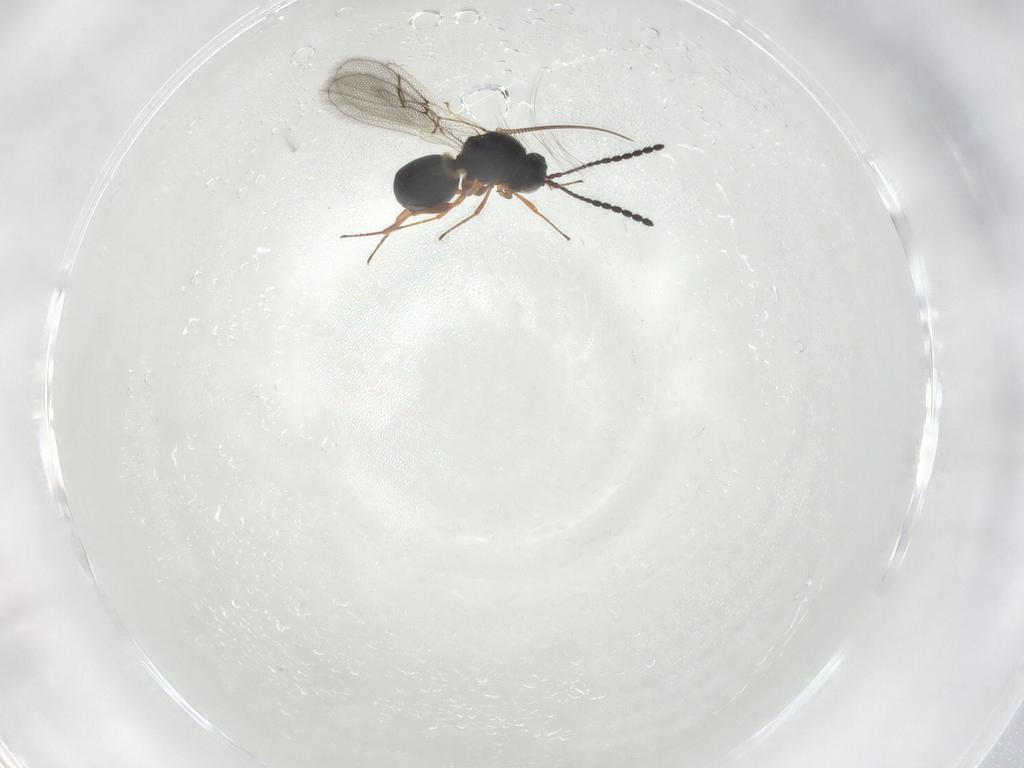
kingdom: Animalia
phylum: Arthropoda
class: Insecta
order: Hymenoptera
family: Figitidae
